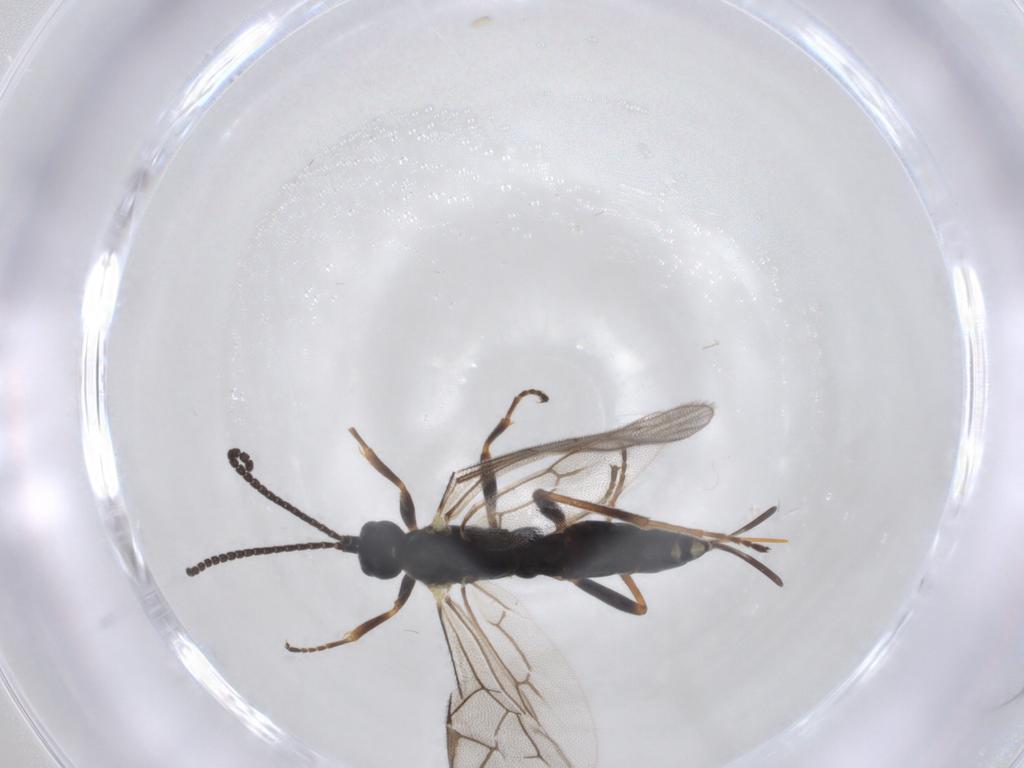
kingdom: Animalia
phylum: Arthropoda
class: Insecta
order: Hymenoptera
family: Ichneumonidae
